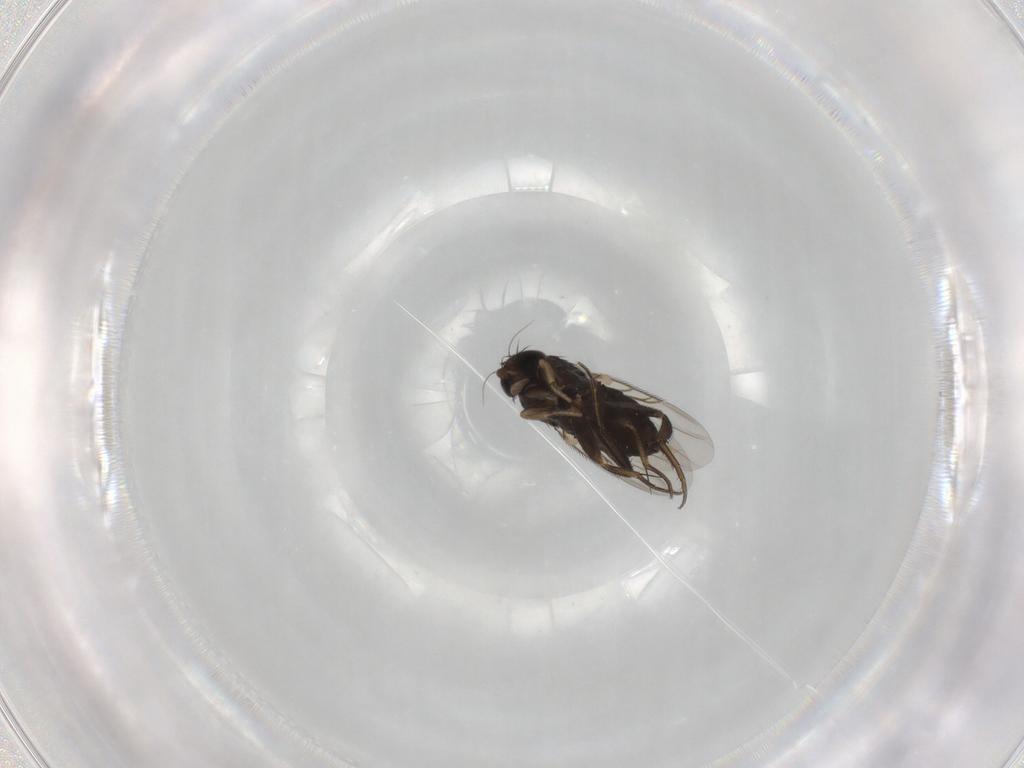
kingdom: Animalia
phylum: Arthropoda
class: Insecta
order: Diptera
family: Phoridae
